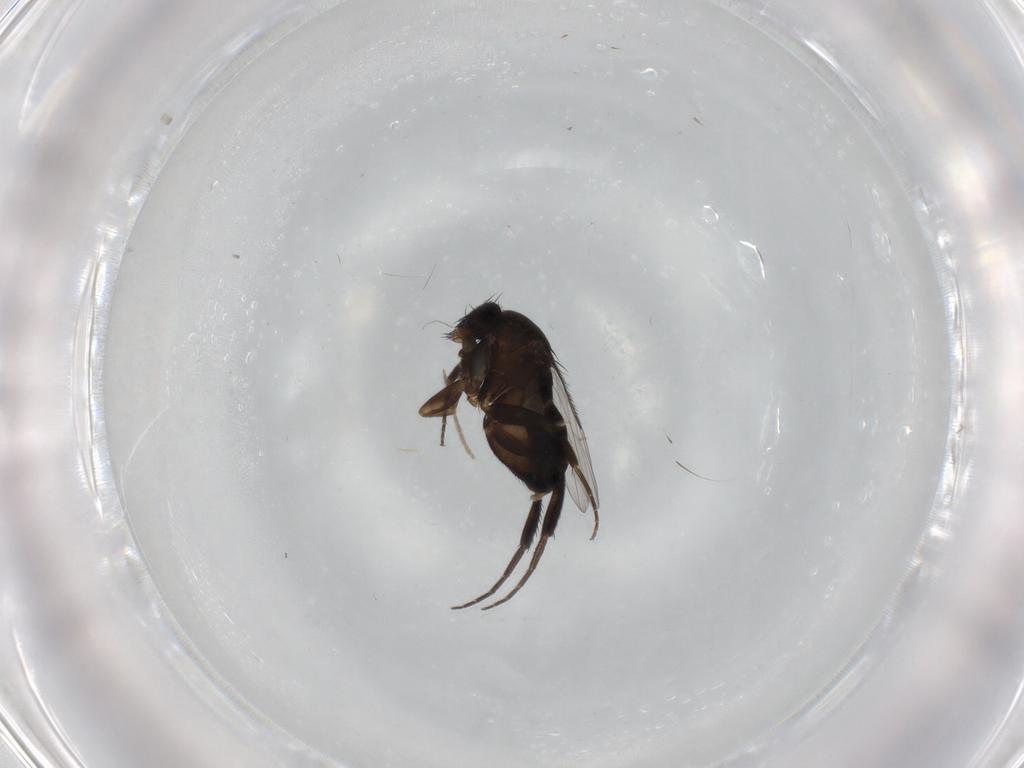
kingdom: Animalia
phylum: Arthropoda
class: Insecta
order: Diptera
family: Phoridae
